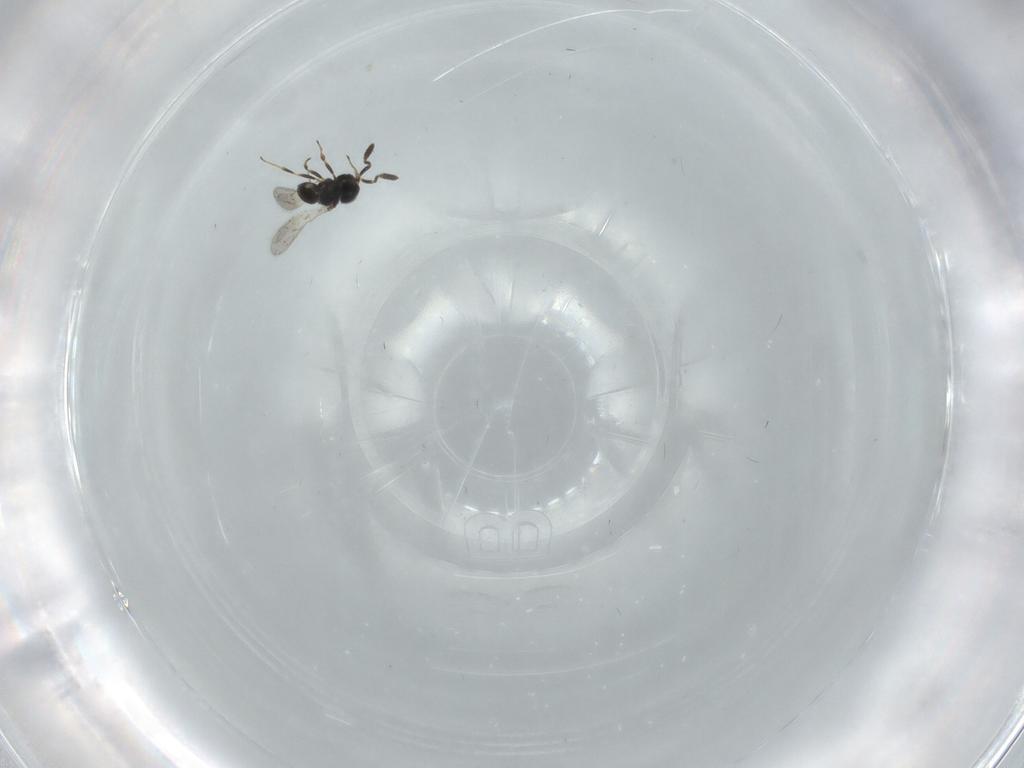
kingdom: Animalia
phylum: Arthropoda
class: Insecta
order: Hymenoptera
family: Scelionidae
